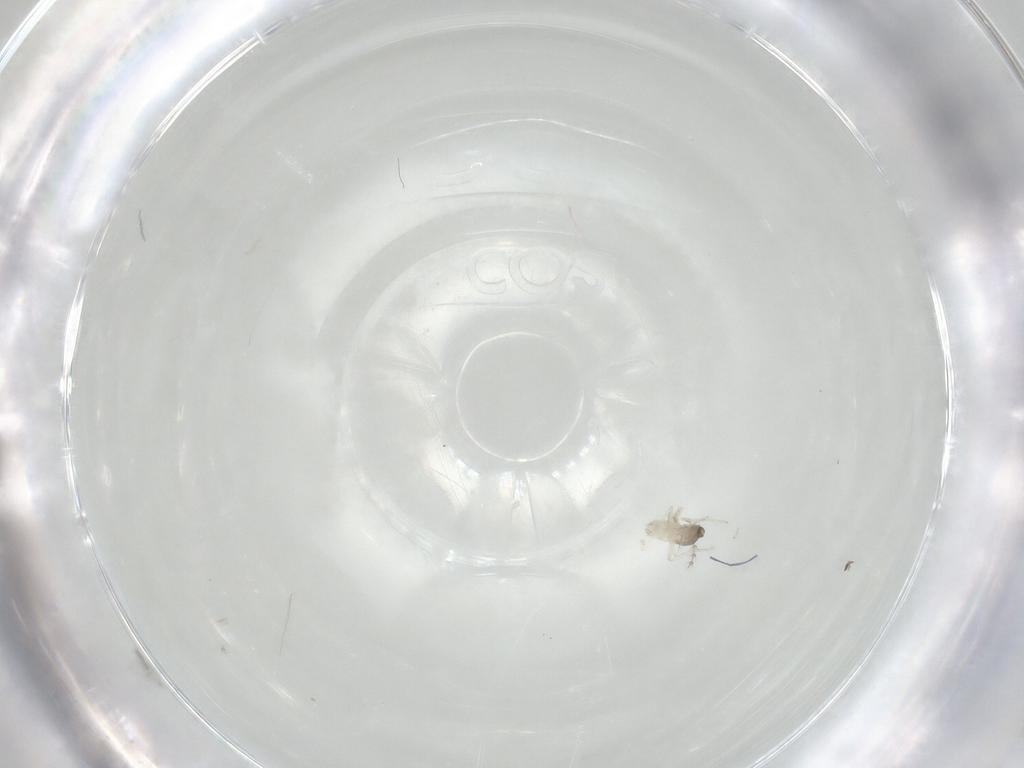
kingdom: Animalia
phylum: Arthropoda
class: Insecta
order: Diptera
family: Cecidomyiidae
